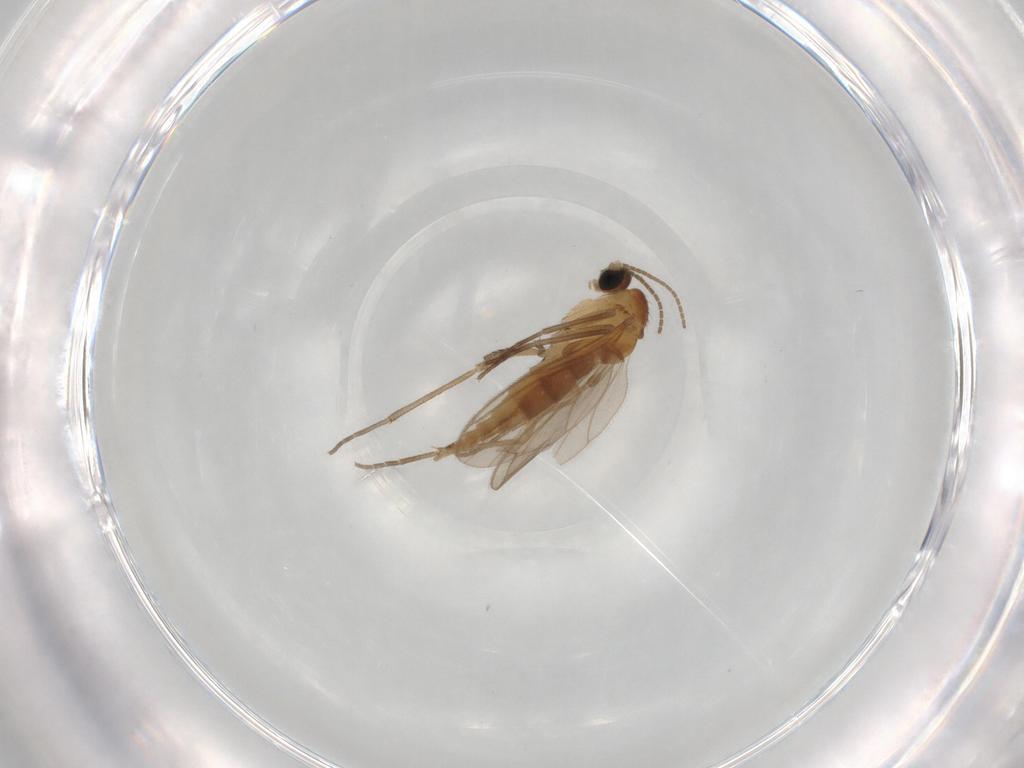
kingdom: Animalia
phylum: Arthropoda
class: Insecta
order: Diptera
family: Sciaridae
